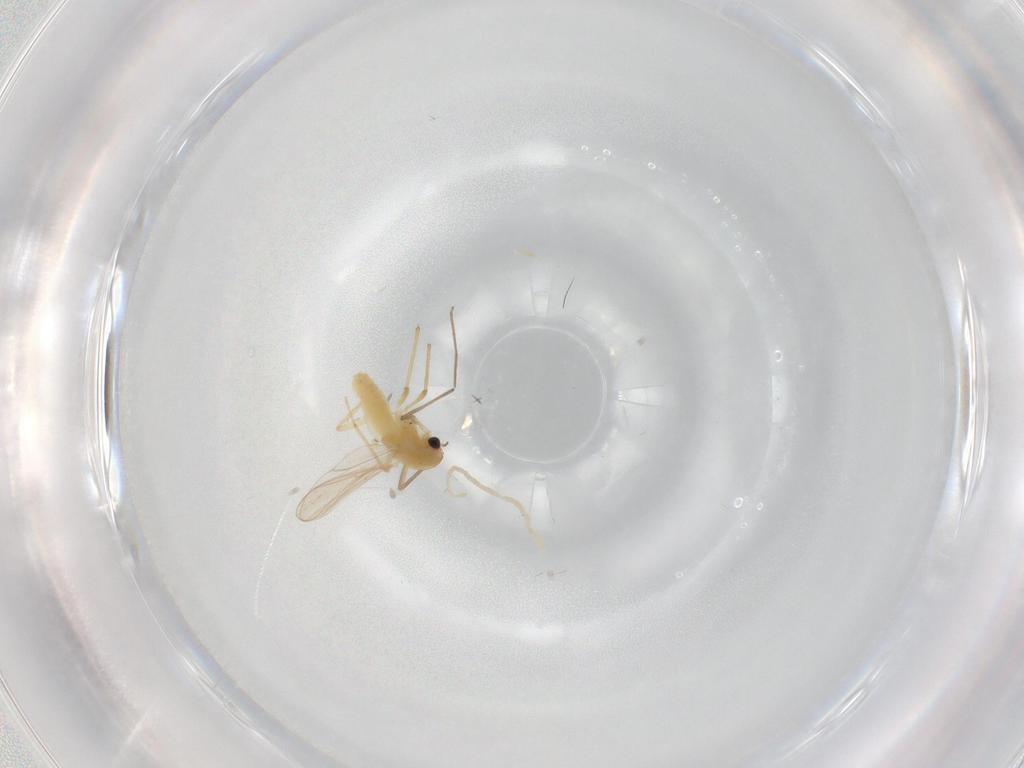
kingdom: Animalia
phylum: Arthropoda
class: Insecta
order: Diptera
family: Chironomidae
